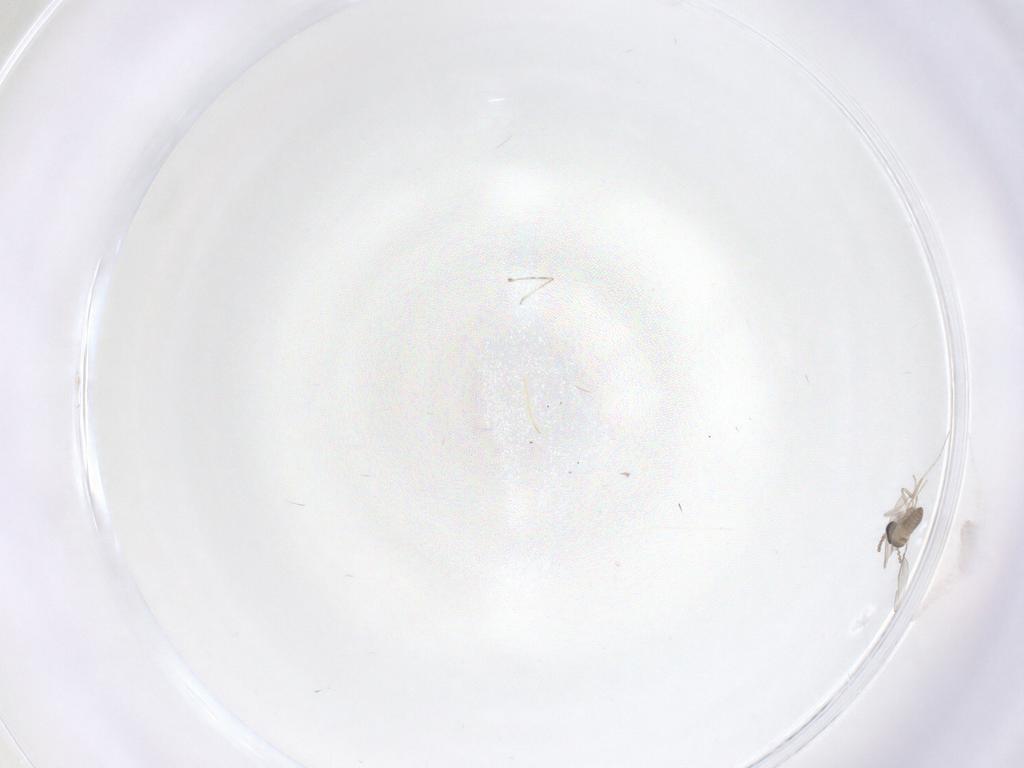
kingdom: Animalia
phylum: Arthropoda
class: Insecta
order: Diptera
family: Cecidomyiidae
